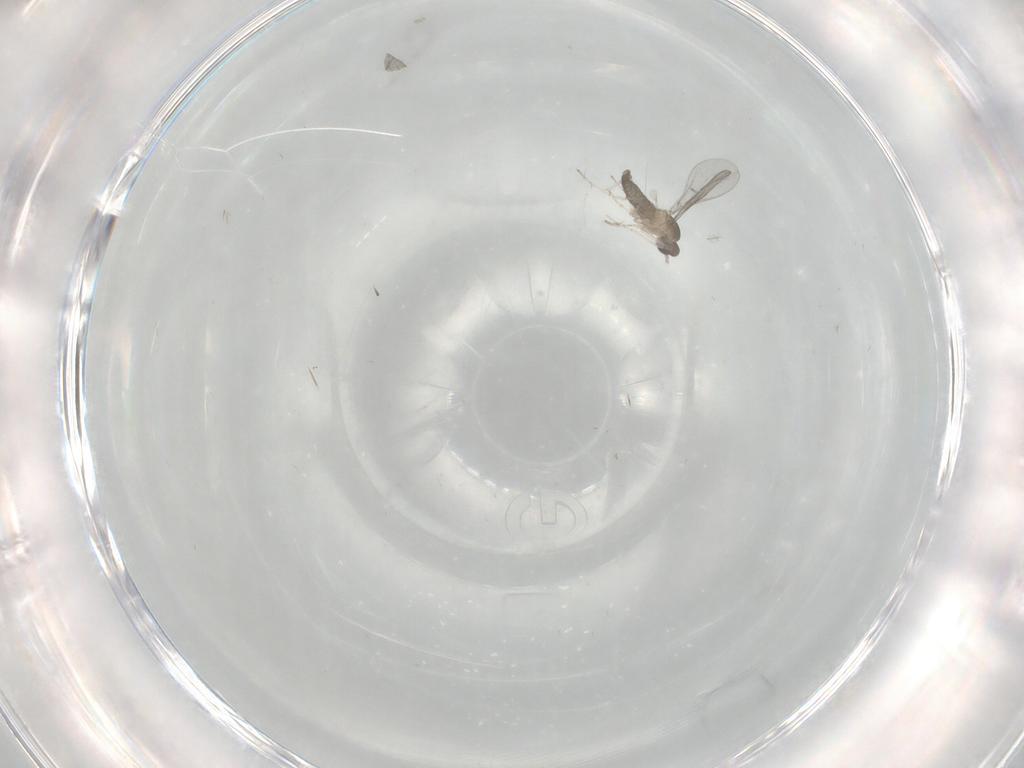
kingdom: Animalia
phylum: Arthropoda
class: Insecta
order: Diptera
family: Cecidomyiidae
